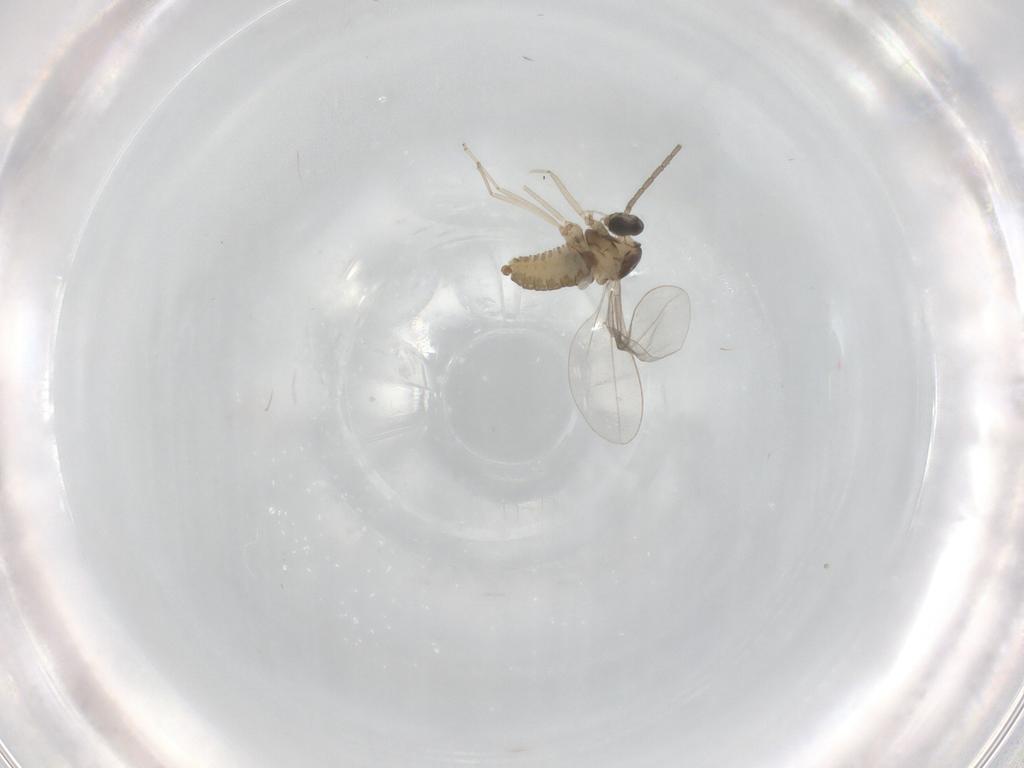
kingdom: Animalia
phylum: Arthropoda
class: Insecta
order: Diptera
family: Cecidomyiidae
